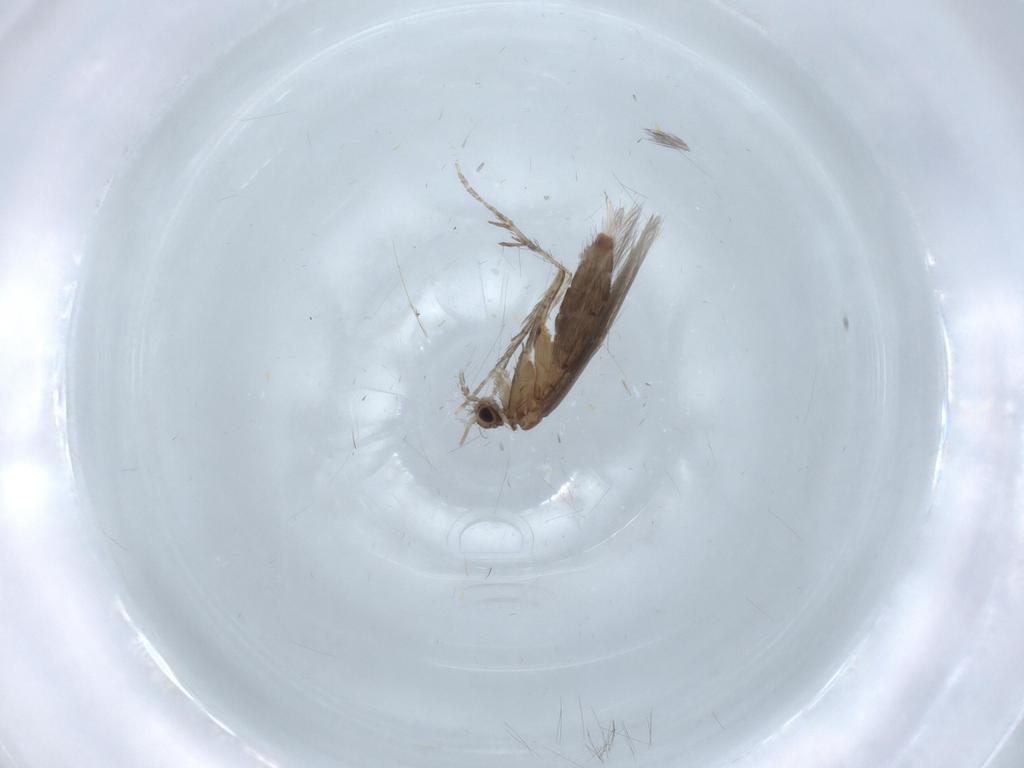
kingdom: Animalia
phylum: Arthropoda
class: Insecta
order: Trichoptera
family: Hydroptilidae
